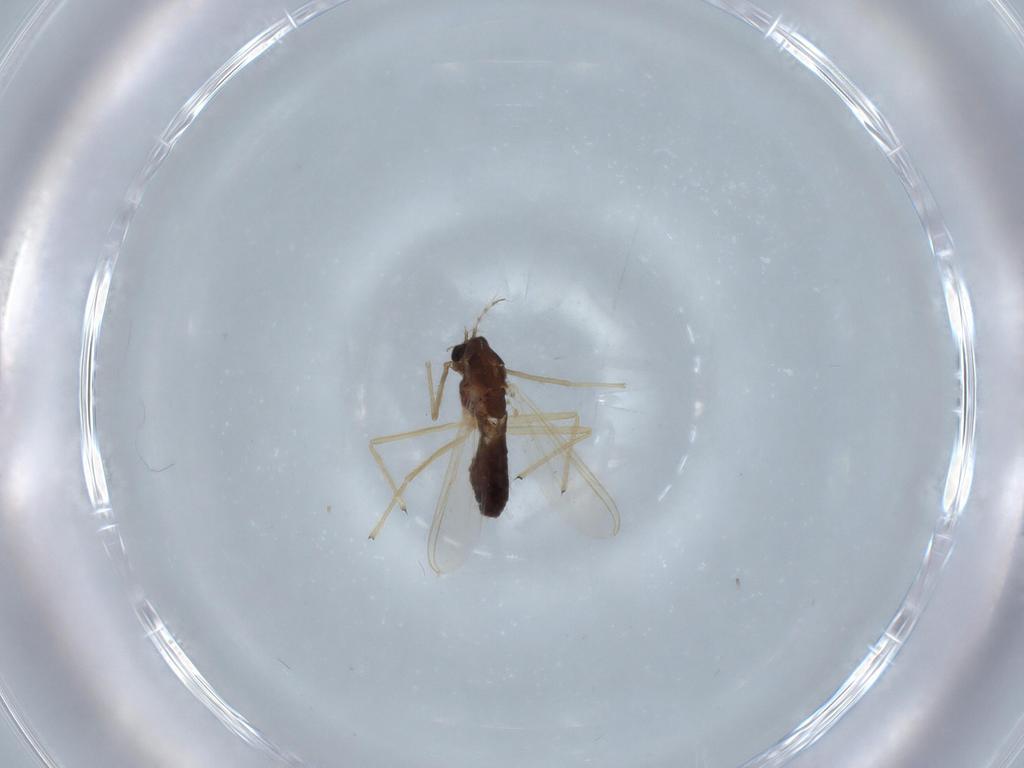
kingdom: Animalia
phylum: Arthropoda
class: Insecta
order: Diptera
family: Chironomidae
